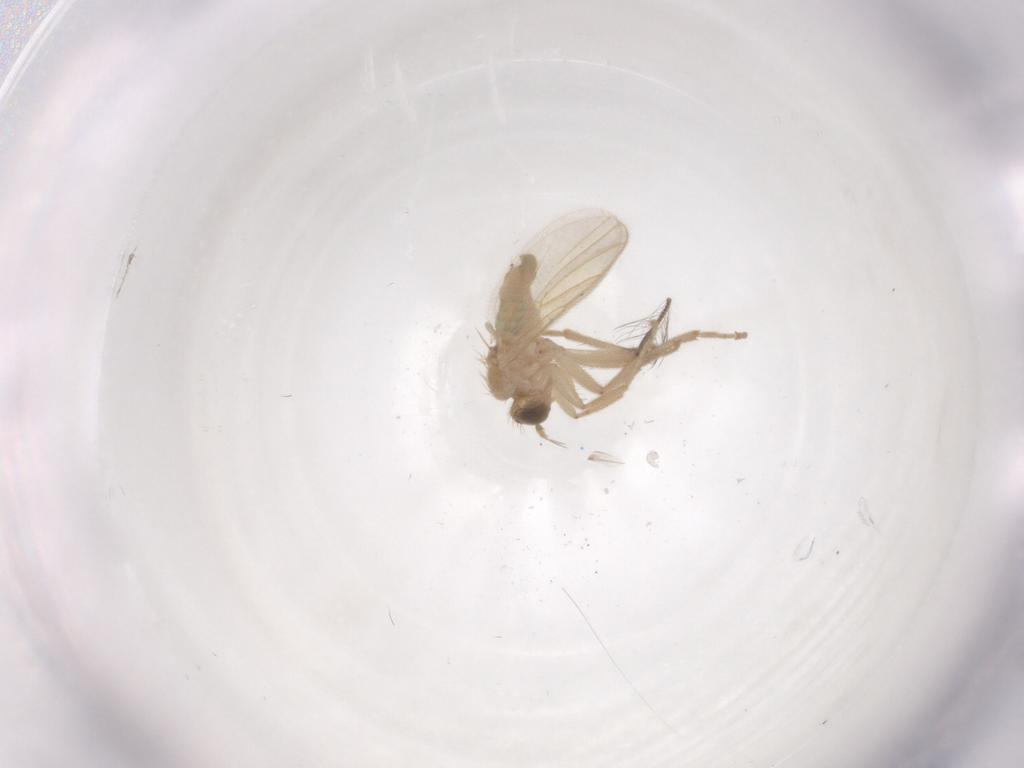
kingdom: Animalia
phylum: Arthropoda
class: Insecta
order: Diptera
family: Hybotidae
